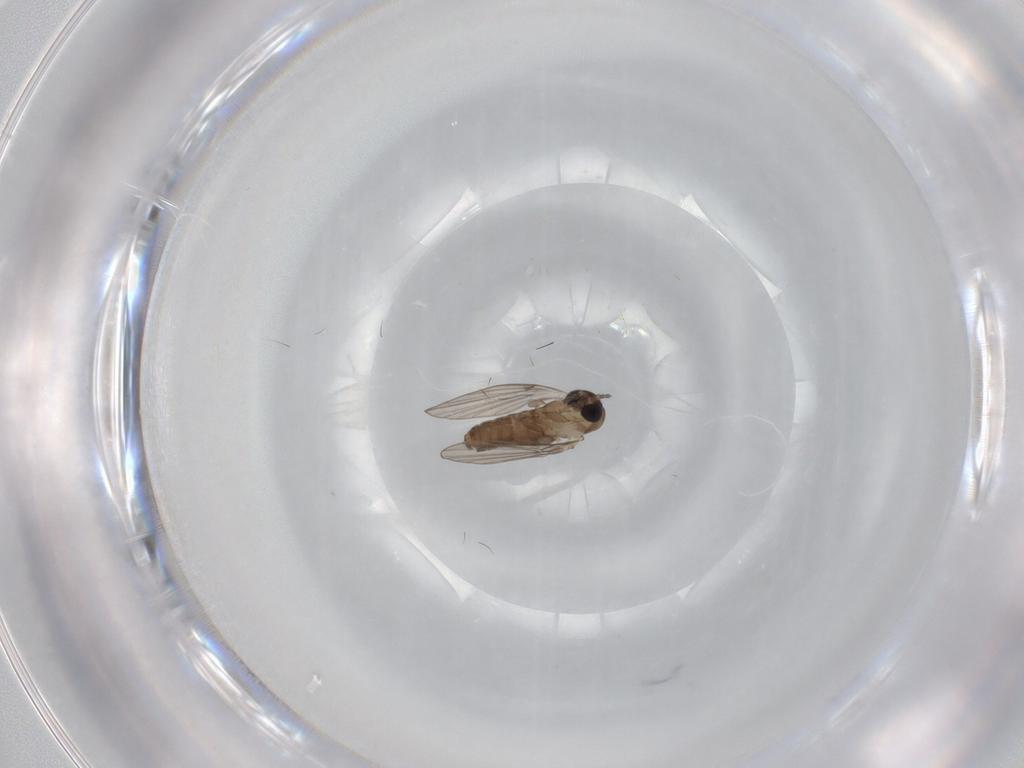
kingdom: Animalia
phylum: Arthropoda
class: Insecta
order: Diptera
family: Psychodidae
